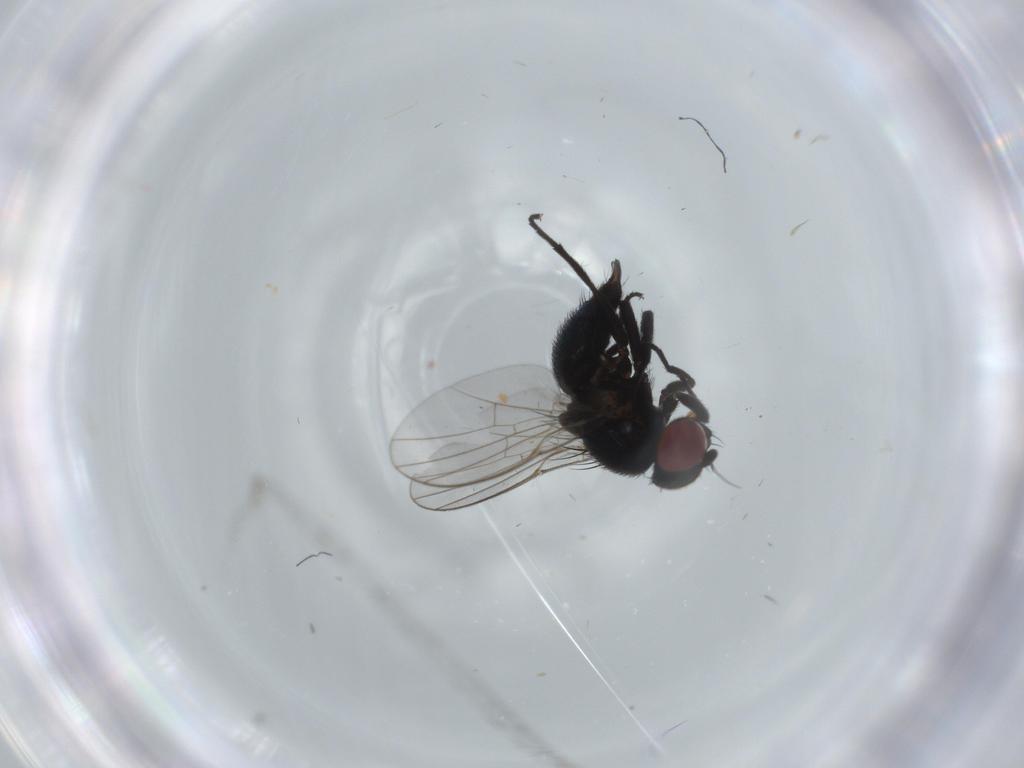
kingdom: Animalia
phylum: Arthropoda
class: Insecta
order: Diptera
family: Agromyzidae
